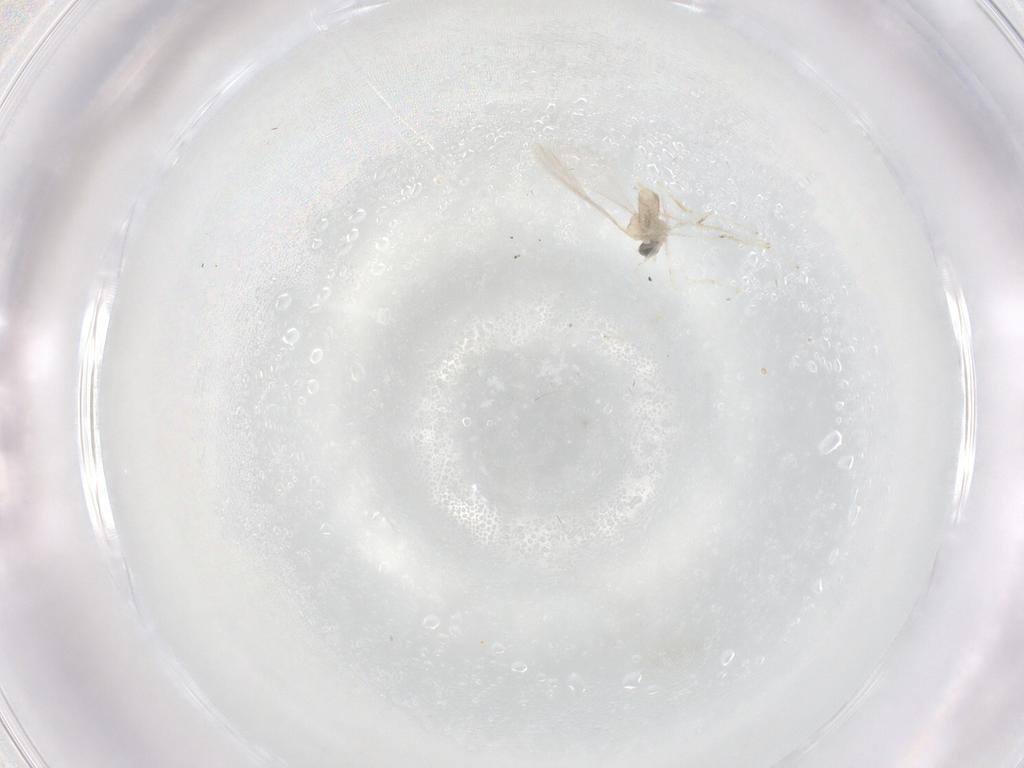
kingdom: Animalia
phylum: Arthropoda
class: Insecta
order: Diptera
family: Cecidomyiidae
